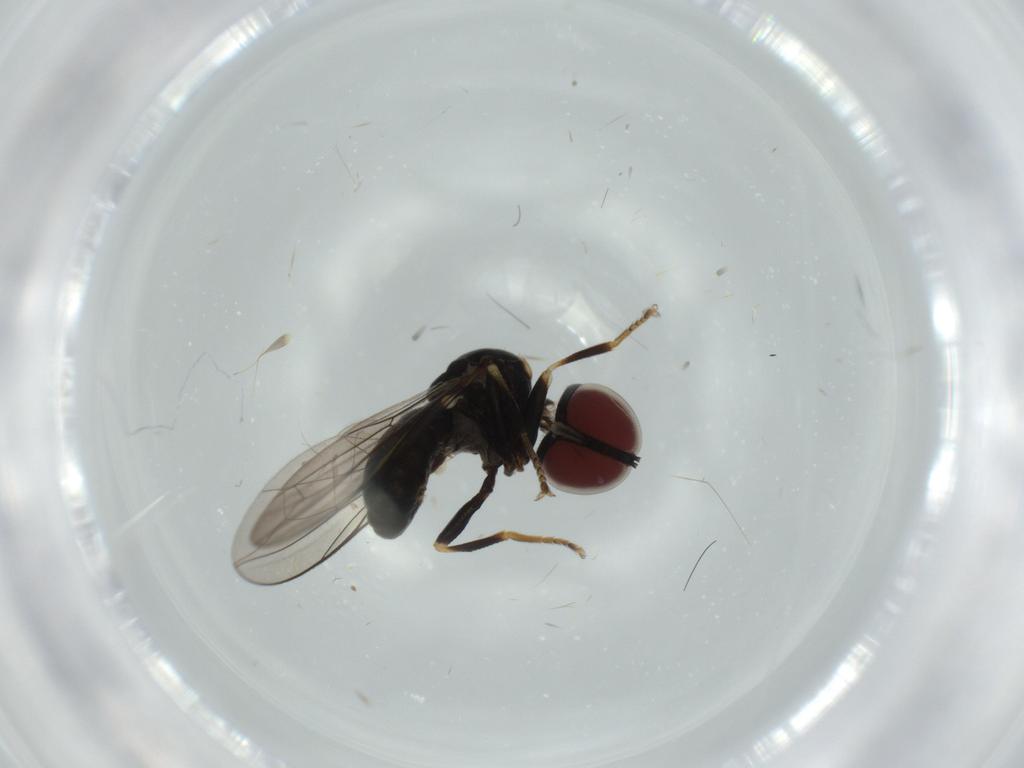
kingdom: Animalia
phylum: Arthropoda
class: Insecta
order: Diptera
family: Pipunculidae
